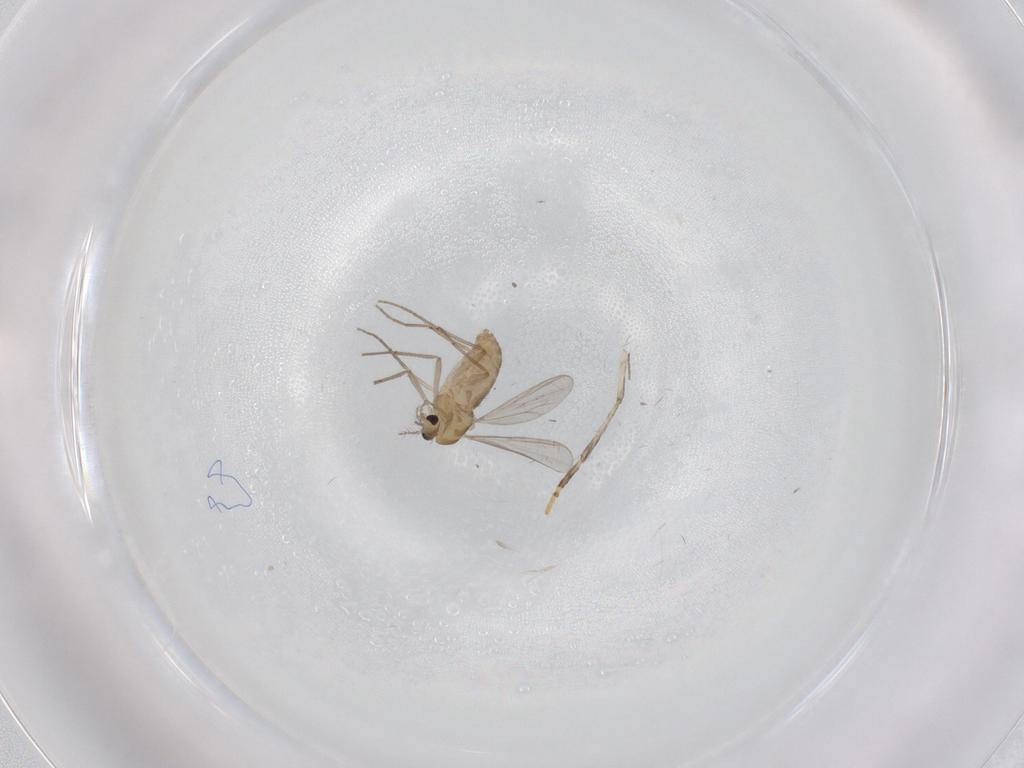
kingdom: Animalia
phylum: Arthropoda
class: Insecta
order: Diptera
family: Chironomidae
